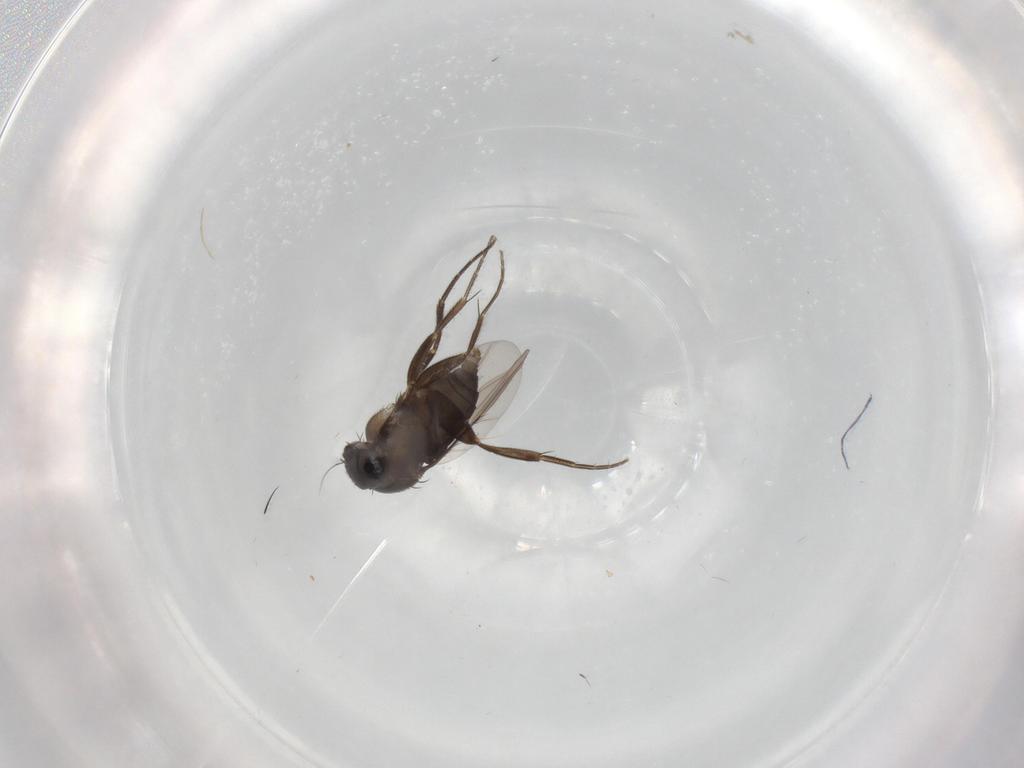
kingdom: Animalia
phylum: Arthropoda
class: Insecta
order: Diptera
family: Phoridae
